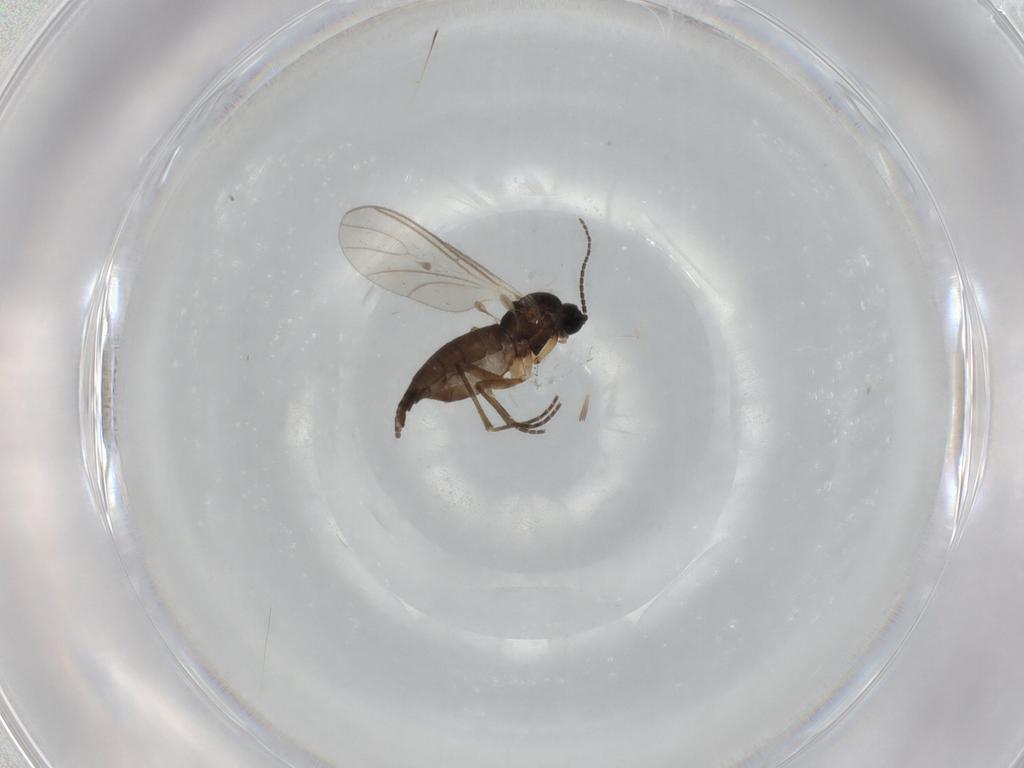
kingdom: Animalia
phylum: Arthropoda
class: Insecta
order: Diptera
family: Sciaridae
